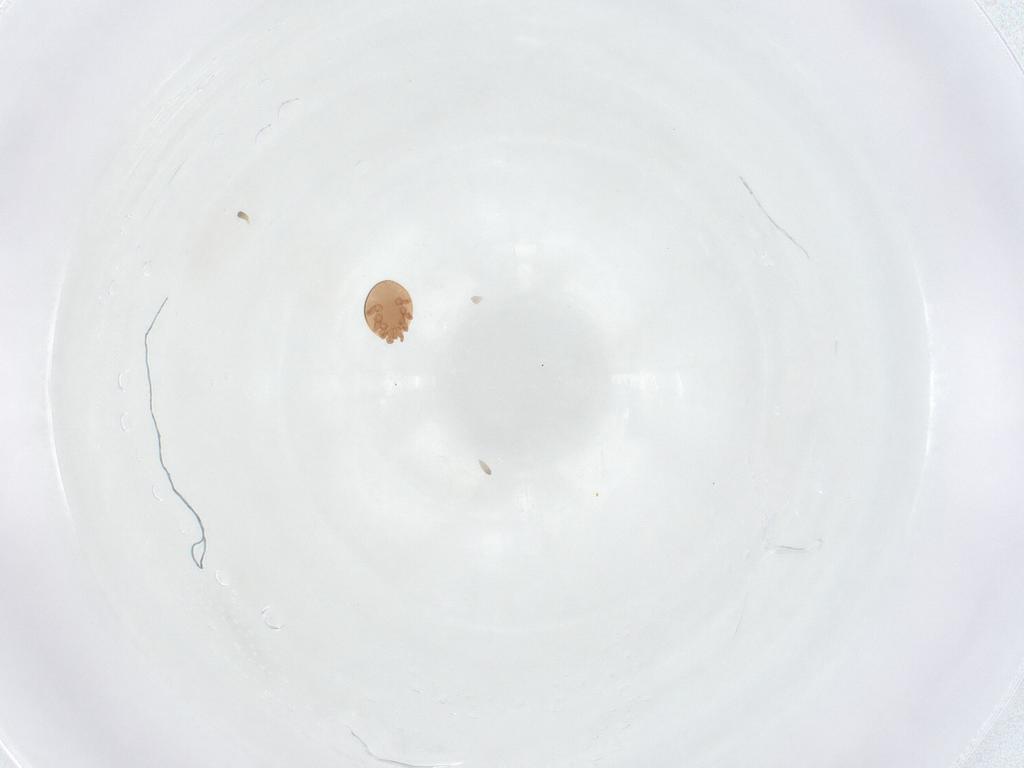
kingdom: Animalia
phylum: Arthropoda
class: Arachnida
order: Mesostigmata
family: Trematuridae
